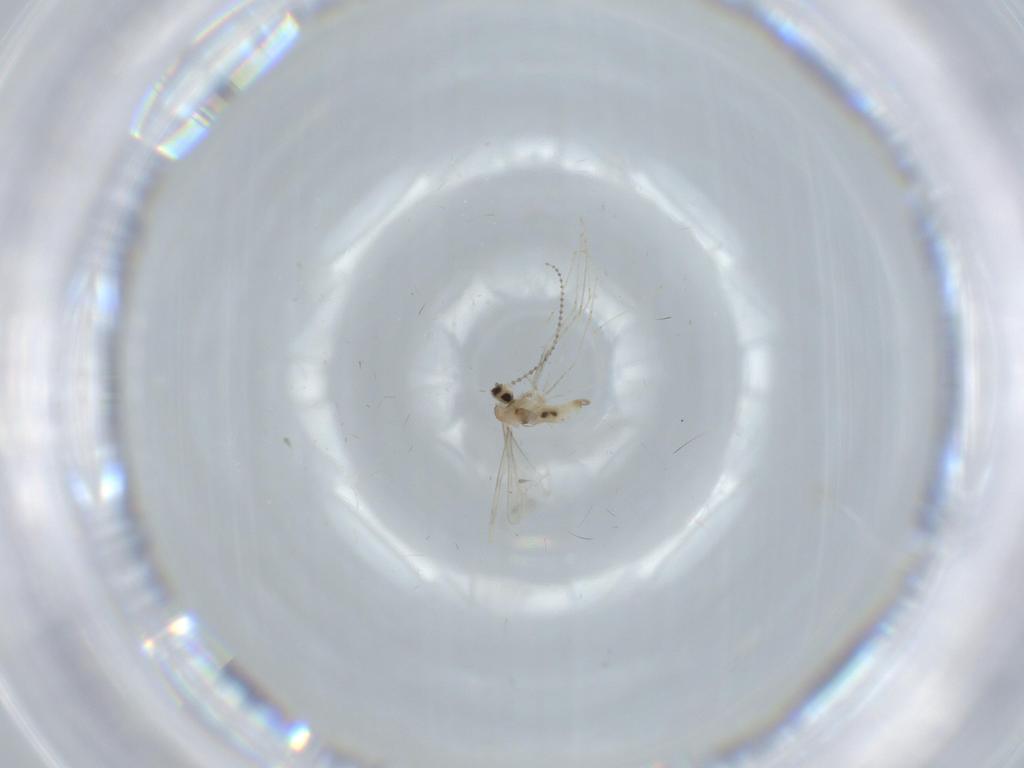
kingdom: Animalia
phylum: Arthropoda
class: Insecta
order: Diptera
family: Cecidomyiidae
